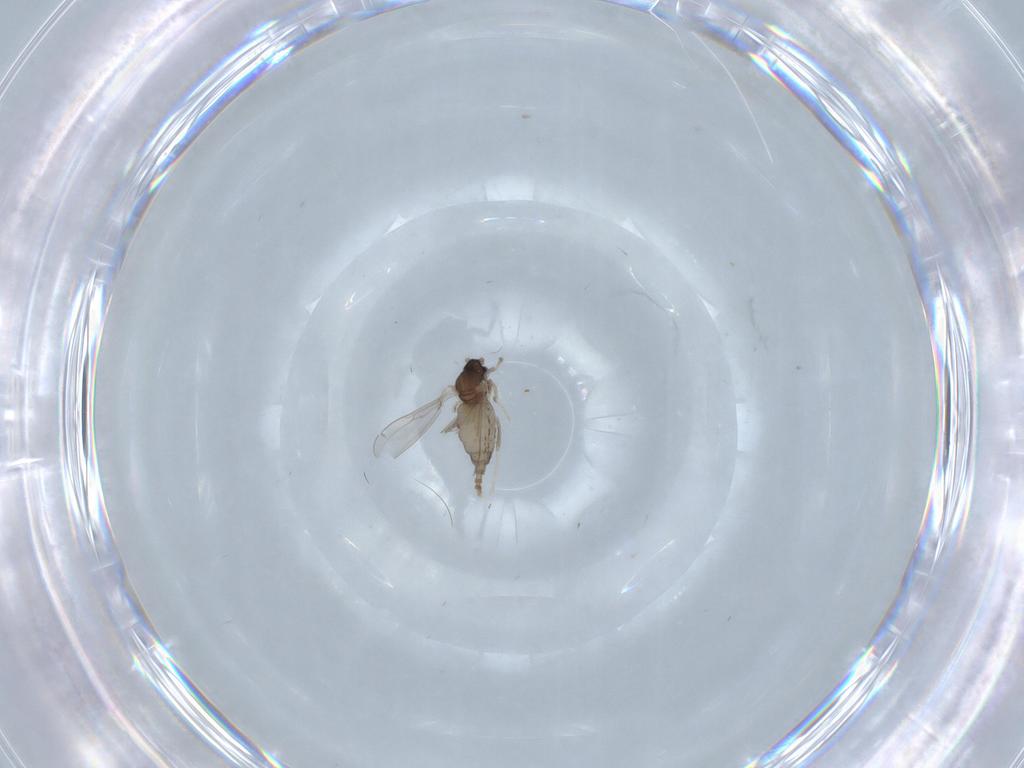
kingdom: Animalia
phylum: Arthropoda
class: Insecta
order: Diptera
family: Cecidomyiidae
